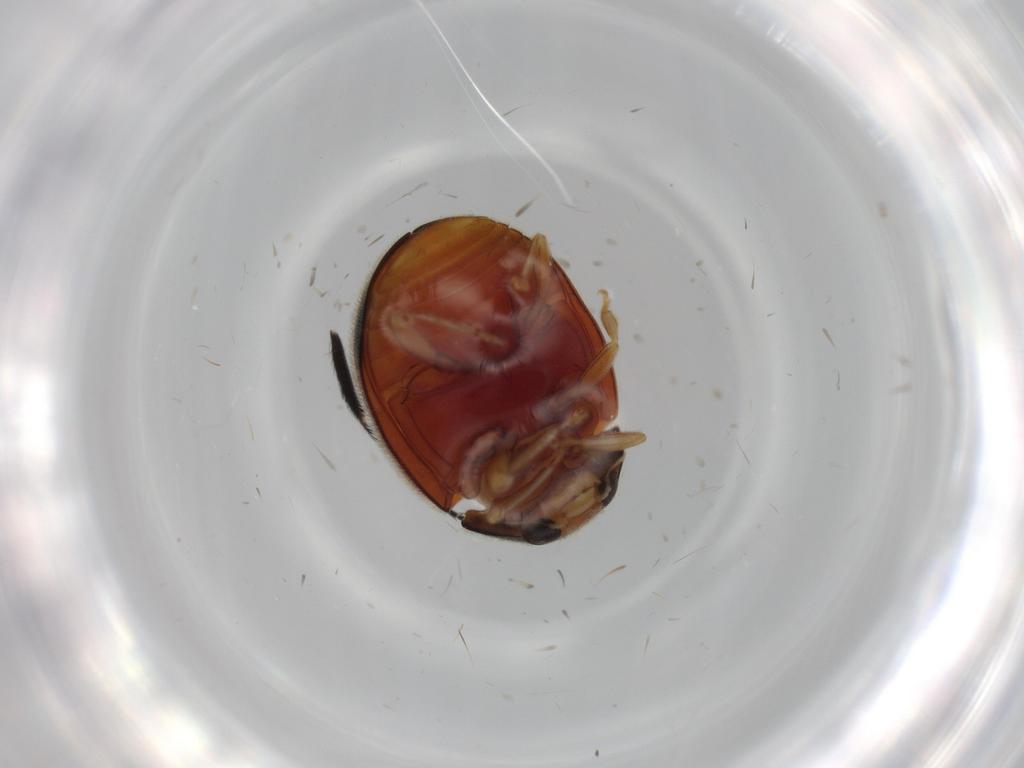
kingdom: Animalia
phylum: Arthropoda
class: Insecta
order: Coleoptera
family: Coccinellidae
